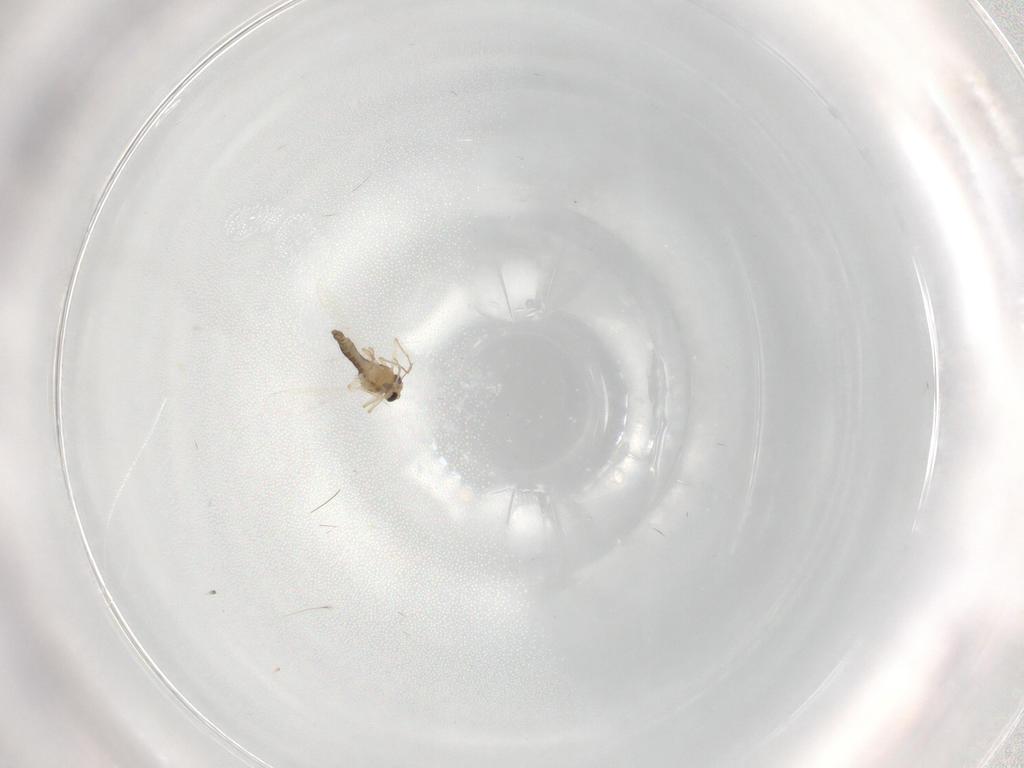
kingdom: Animalia
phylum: Arthropoda
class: Insecta
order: Diptera
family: Chironomidae
